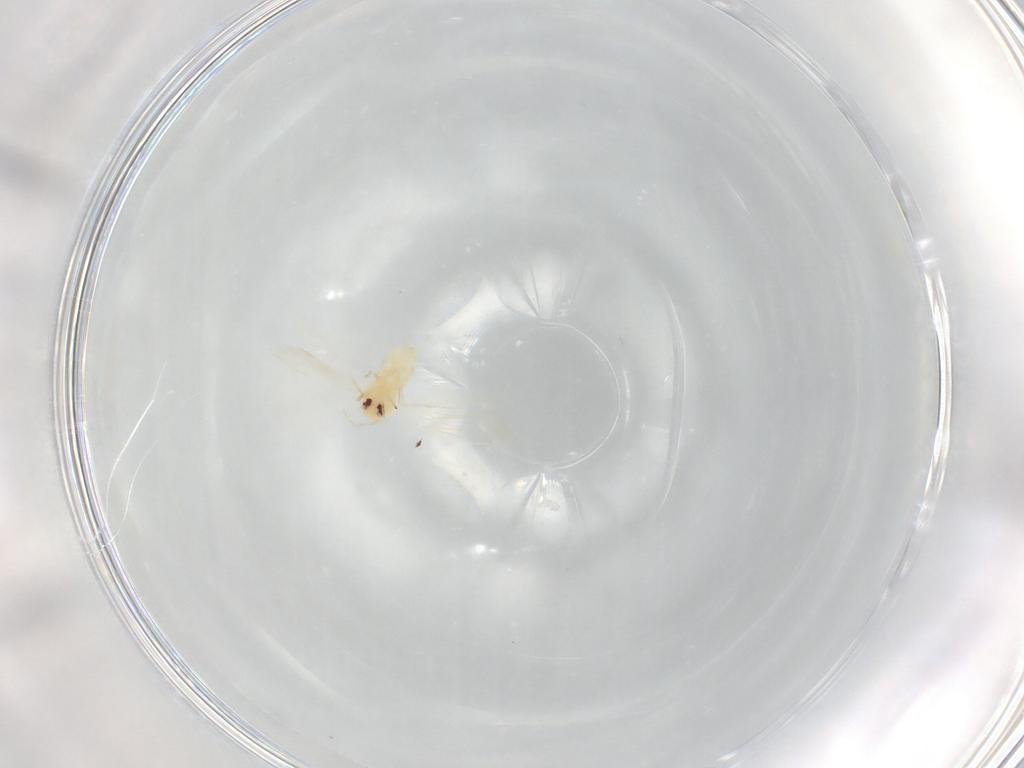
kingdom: Animalia
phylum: Arthropoda
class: Insecta
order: Hemiptera
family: Aleyrodidae
